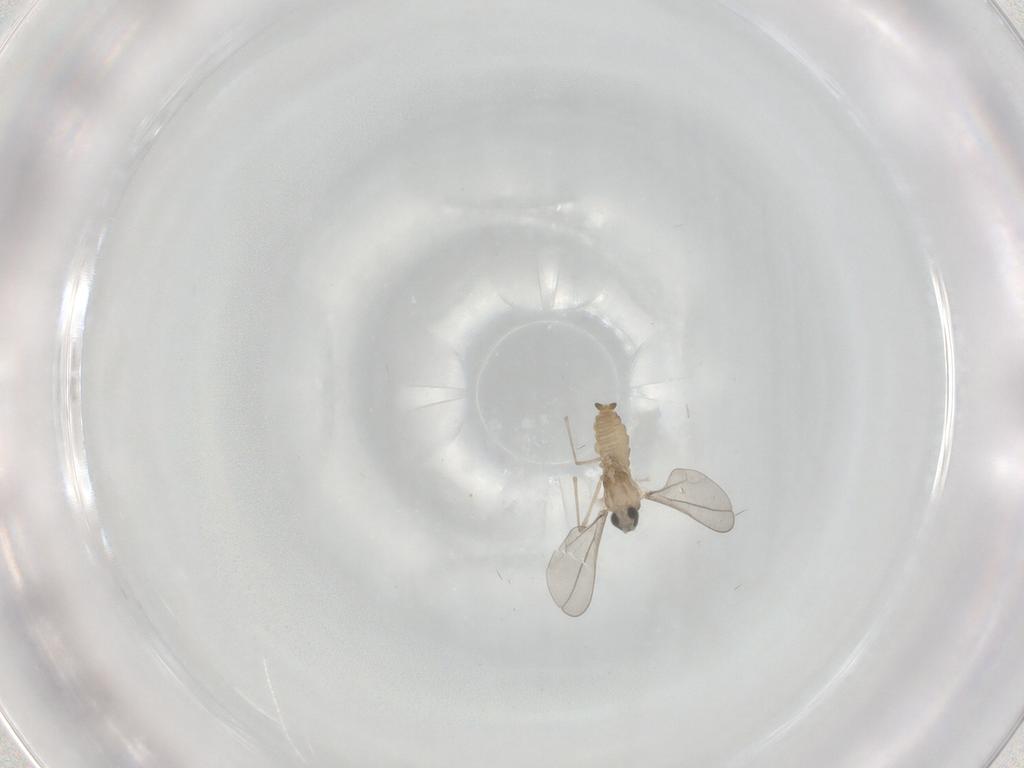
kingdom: Animalia
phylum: Arthropoda
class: Insecta
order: Diptera
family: Cecidomyiidae
